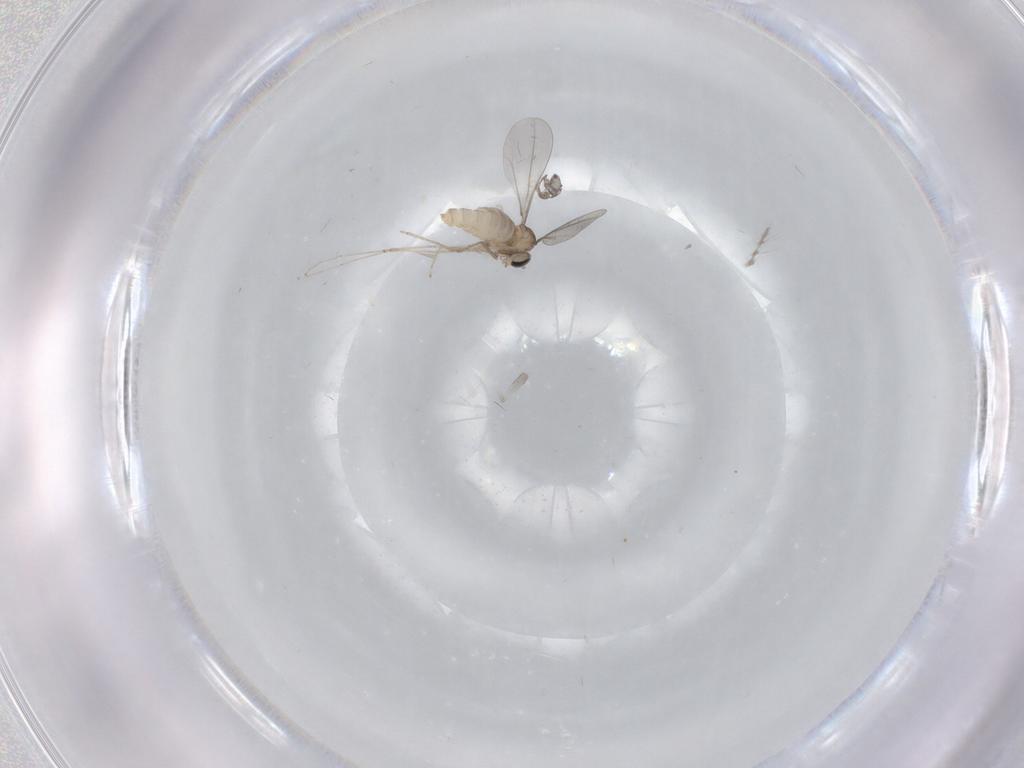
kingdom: Animalia
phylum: Arthropoda
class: Insecta
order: Diptera
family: Cecidomyiidae
